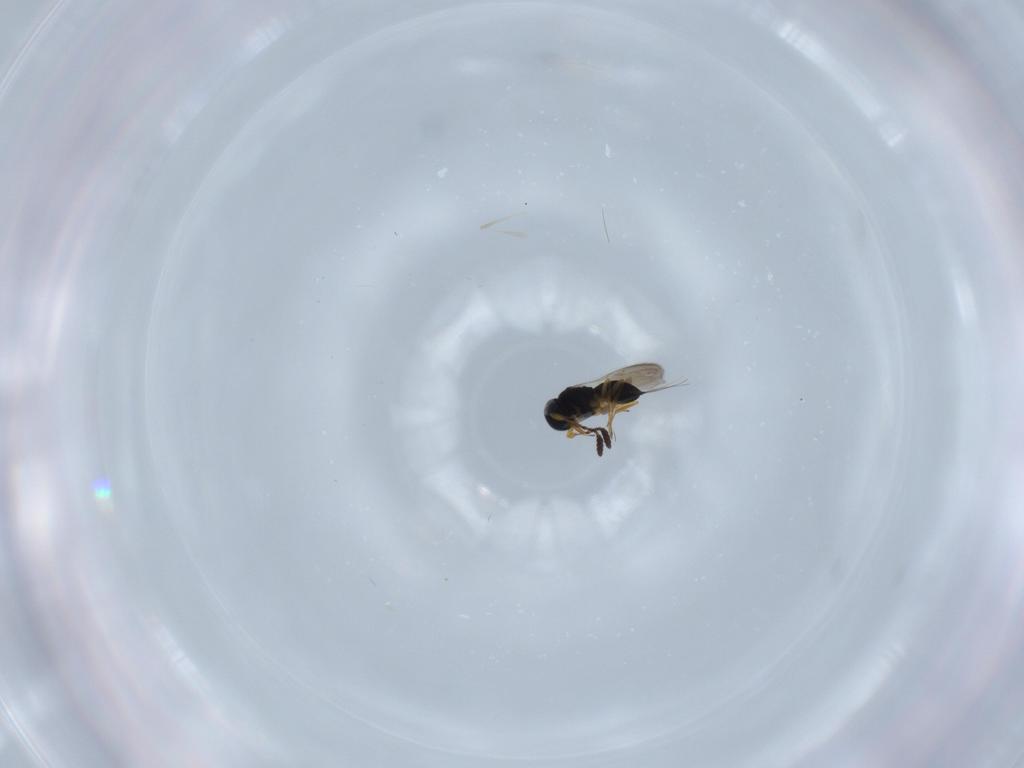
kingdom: Animalia
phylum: Arthropoda
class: Insecta
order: Hymenoptera
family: Scelionidae
